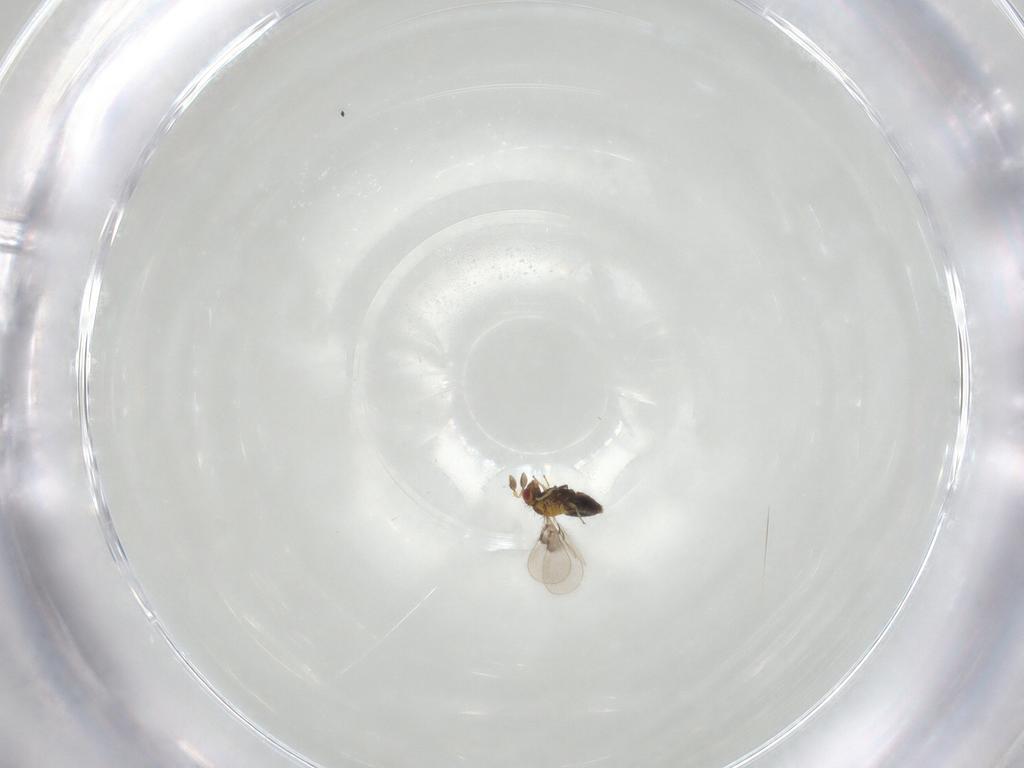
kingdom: Animalia
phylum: Arthropoda
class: Insecta
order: Hymenoptera
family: Trichogrammatidae
